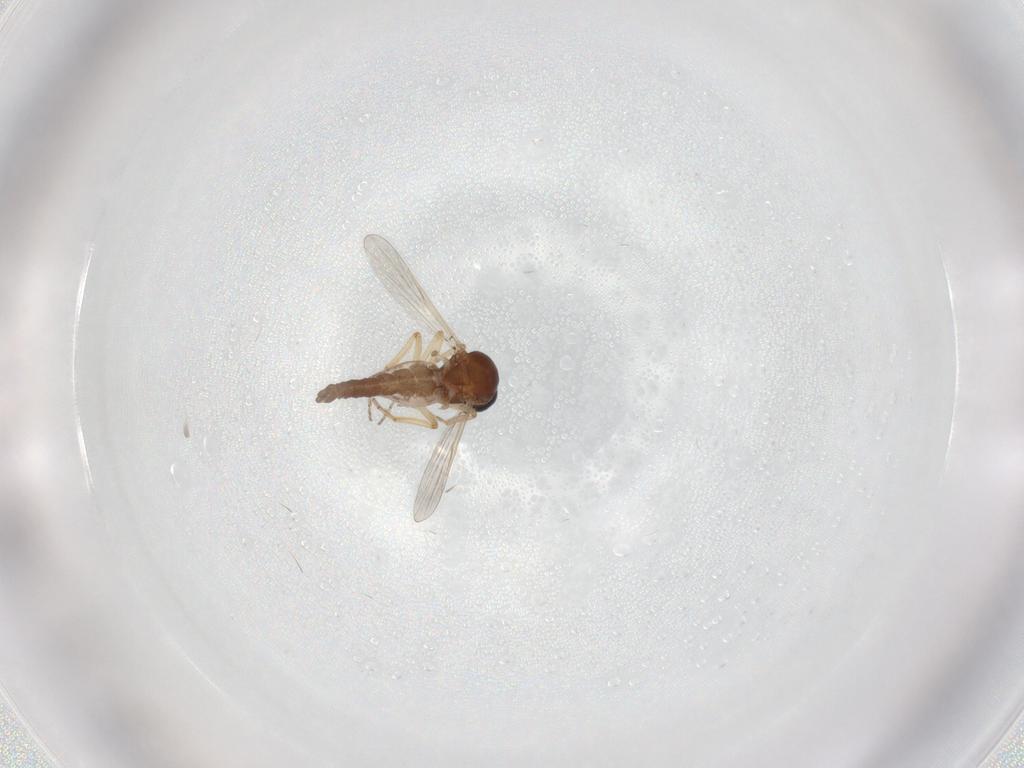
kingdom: Animalia
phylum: Arthropoda
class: Insecta
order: Diptera
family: Ceratopogonidae
